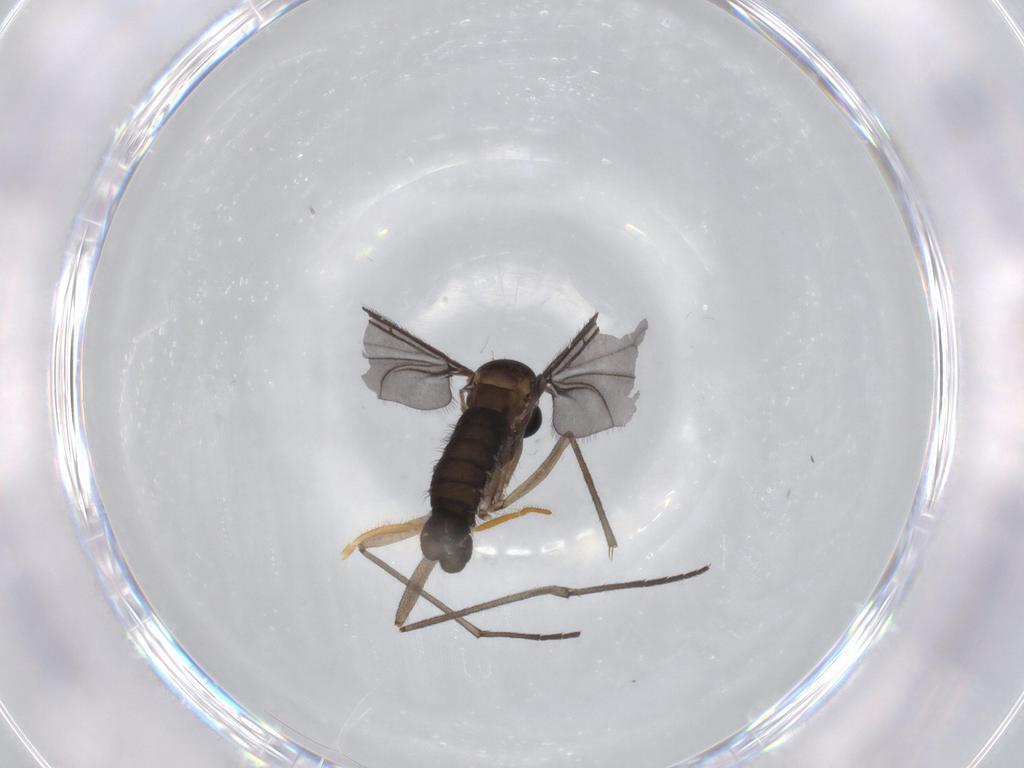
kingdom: Animalia
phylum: Arthropoda
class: Insecta
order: Diptera
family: Sciaridae
